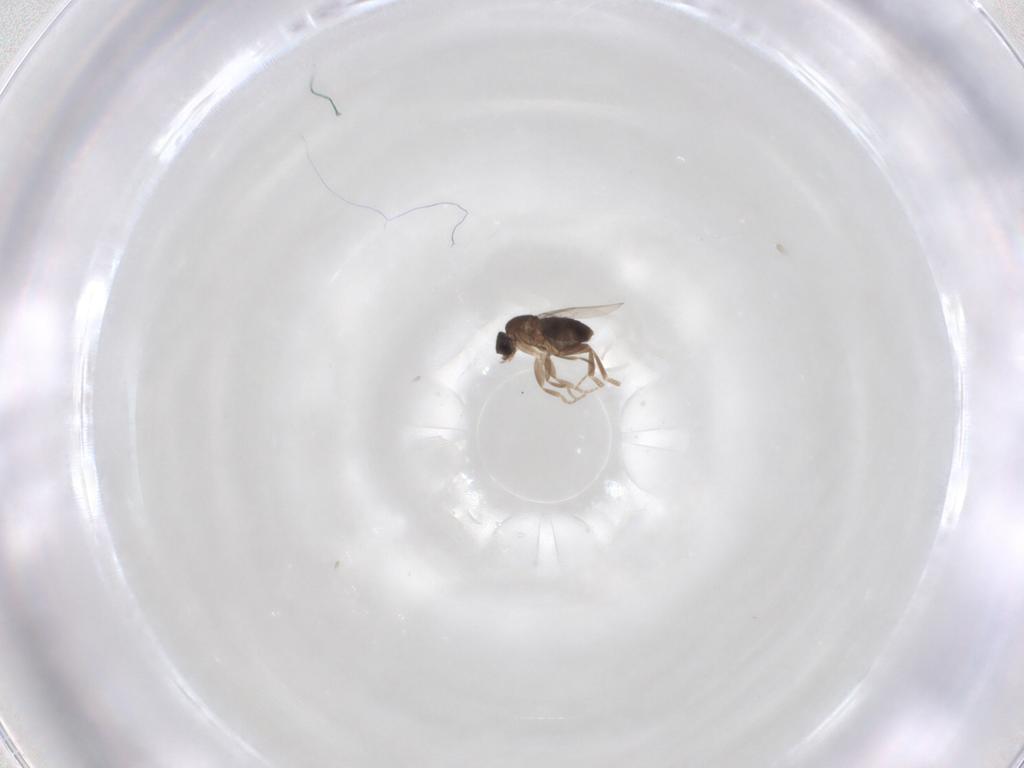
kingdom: Animalia
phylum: Arthropoda
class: Insecta
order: Diptera
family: Phoridae
